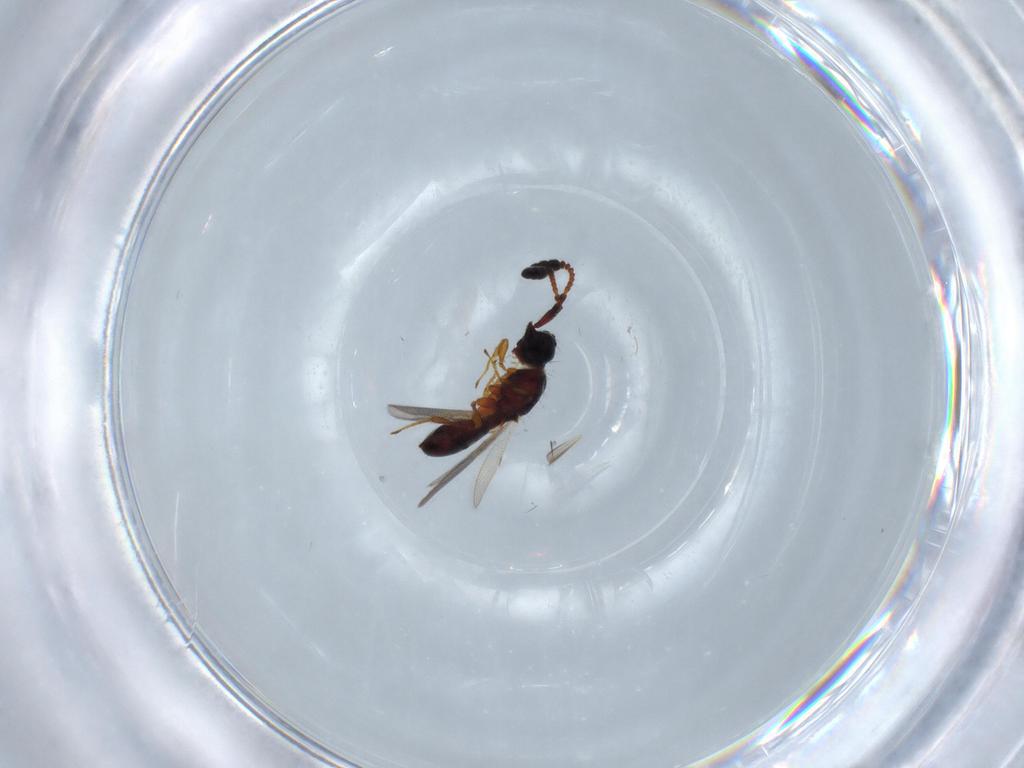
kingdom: Animalia
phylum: Arthropoda
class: Insecta
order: Hymenoptera
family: Diapriidae
